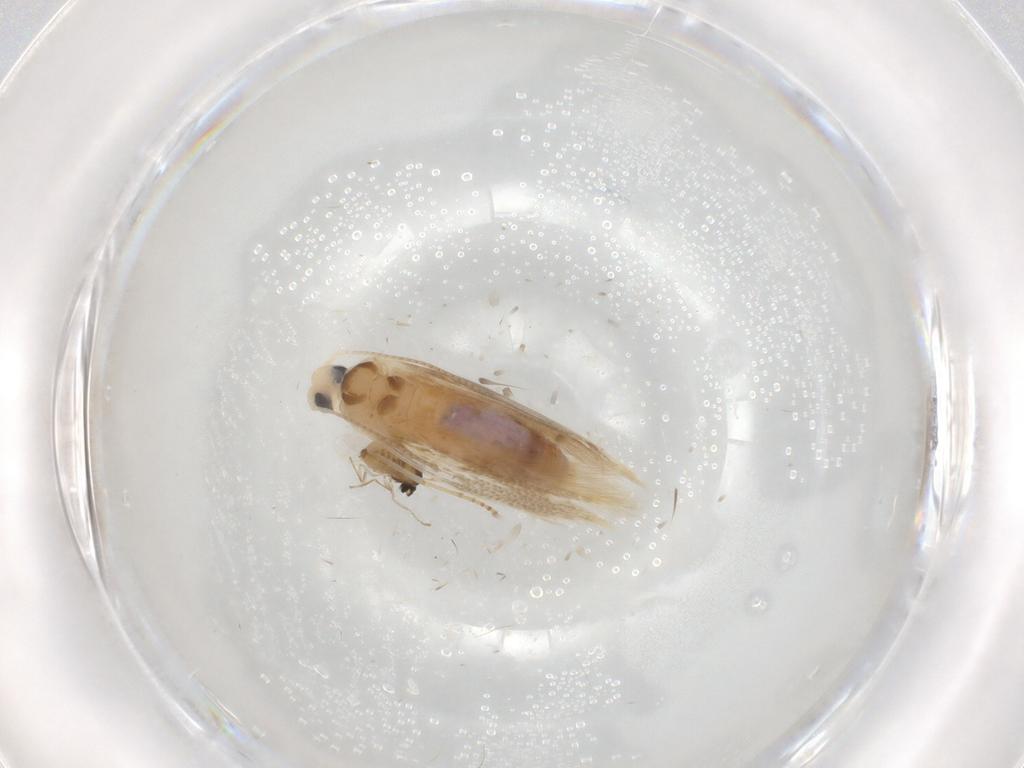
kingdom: Animalia
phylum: Arthropoda
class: Insecta
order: Lepidoptera
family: Bucculatricidae
